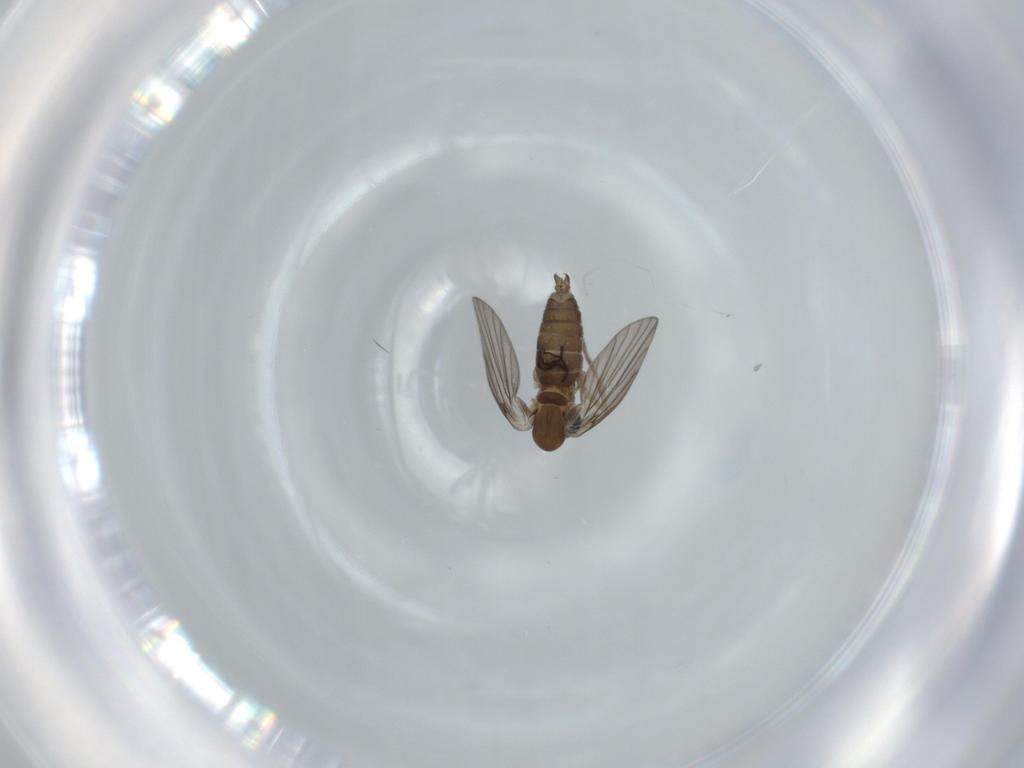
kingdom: Animalia
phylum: Arthropoda
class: Insecta
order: Diptera
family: Psychodidae
